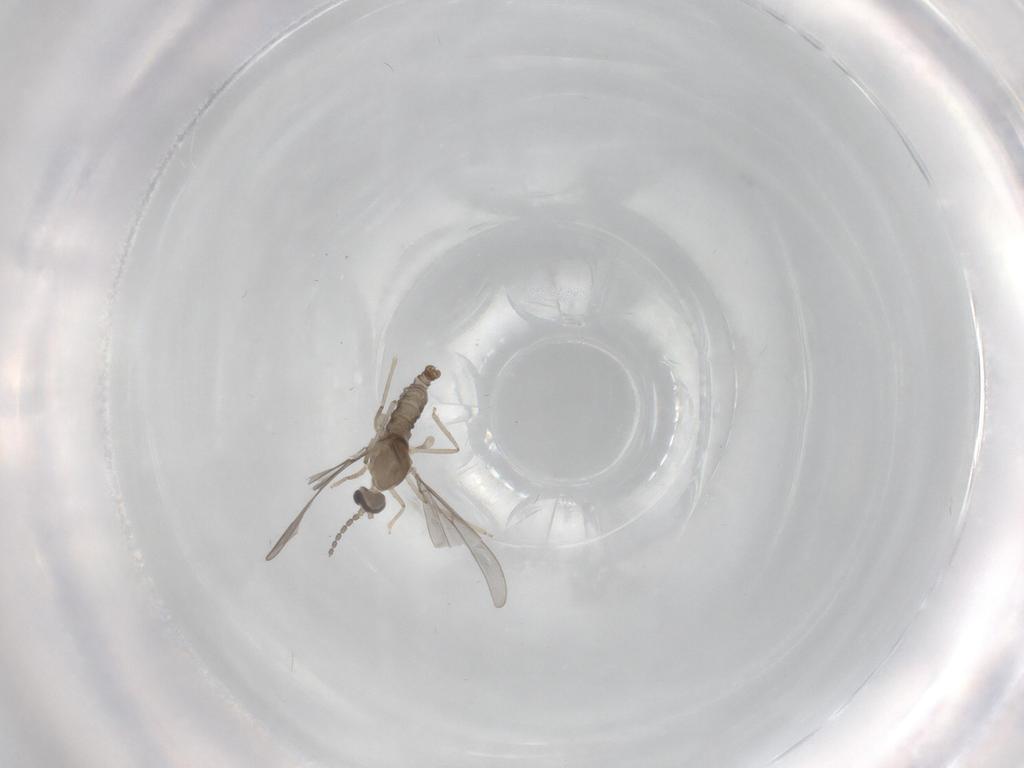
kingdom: Animalia
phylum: Arthropoda
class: Insecta
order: Diptera
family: Cecidomyiidae
